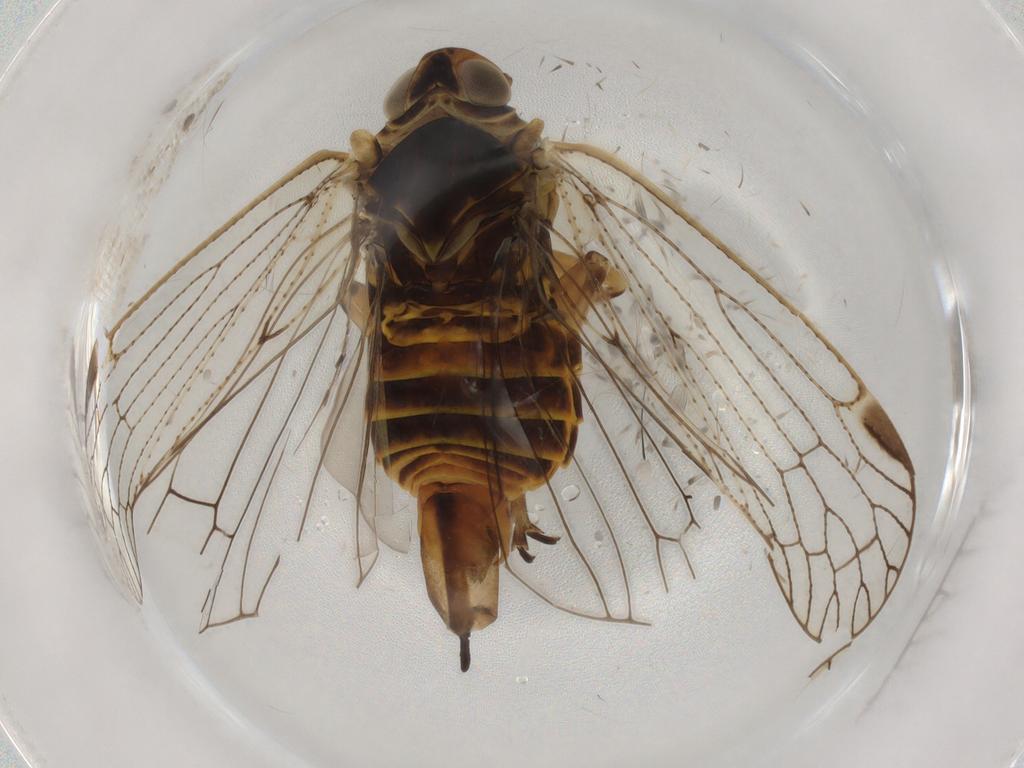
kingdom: Animalia
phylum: Arthropoda
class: Insecta
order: Hemiptera
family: Cixiidae
